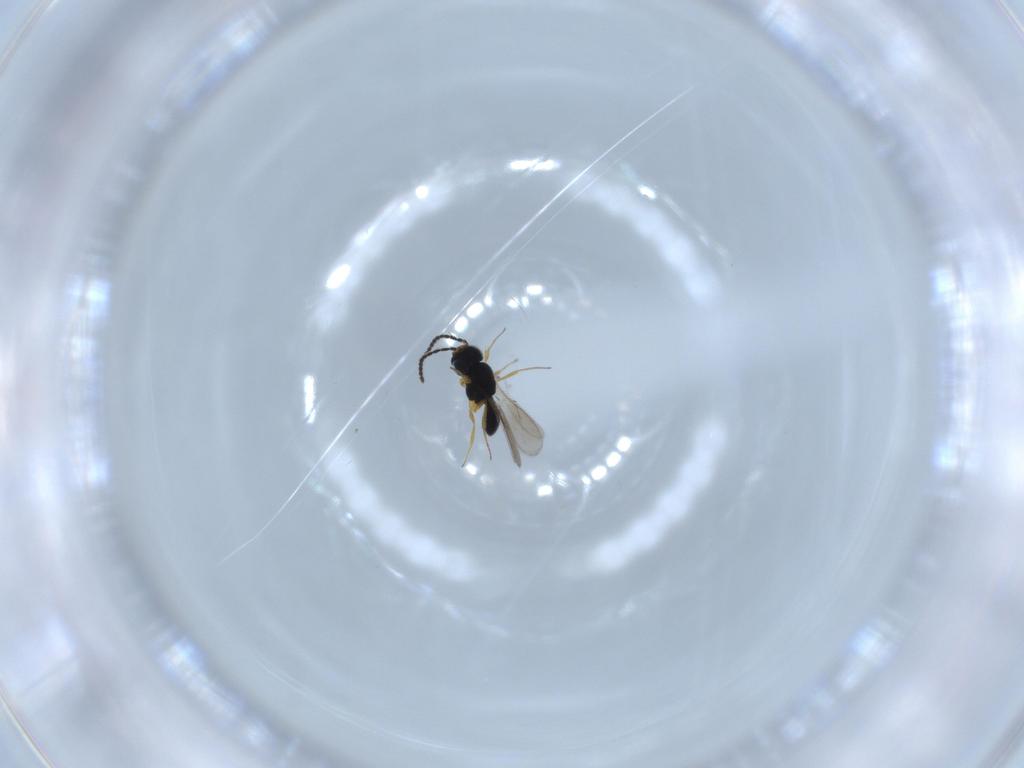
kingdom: Animalia
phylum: Arthropoda
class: Insecta
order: Hymenoptera
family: Scelionidae
